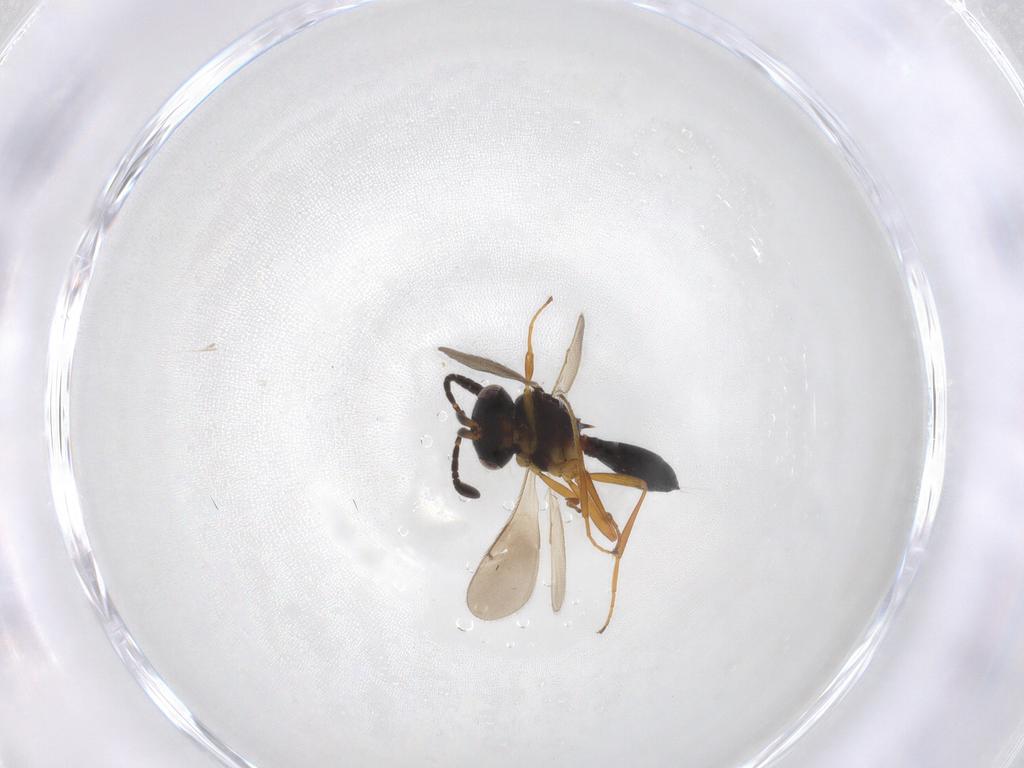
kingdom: Animalia
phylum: Arthropoda
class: Insecta
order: Hymenoptera
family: Scelionidae
